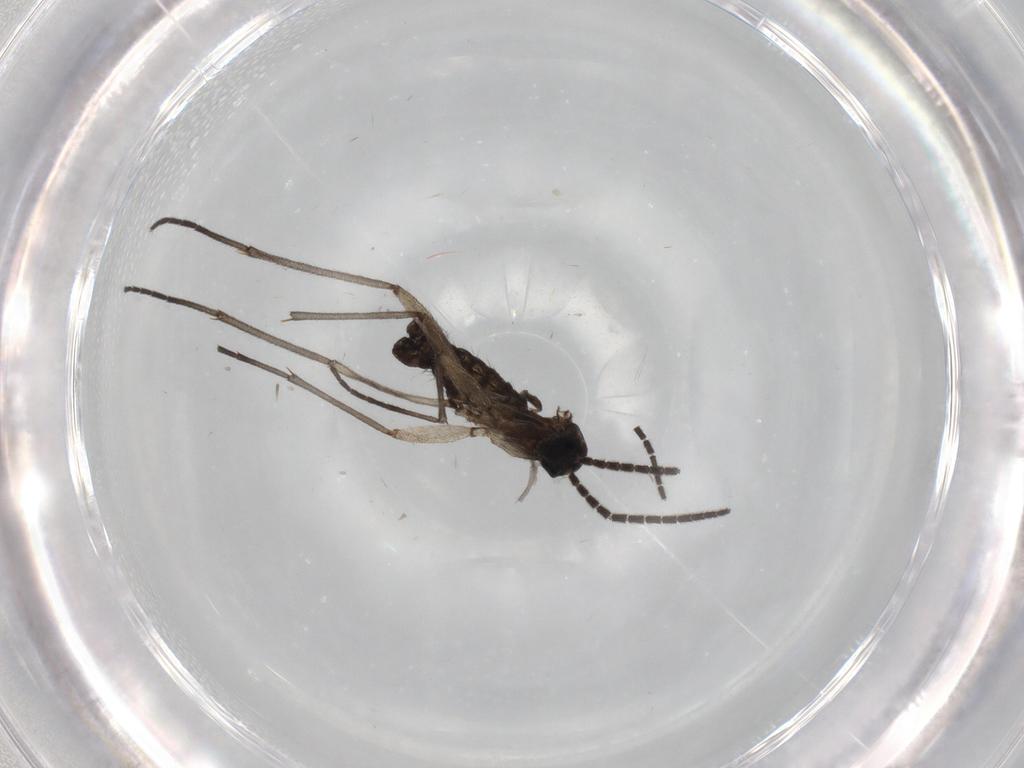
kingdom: Animalia
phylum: Arthropoda
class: Insecta
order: Diptera
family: Sciaridae
